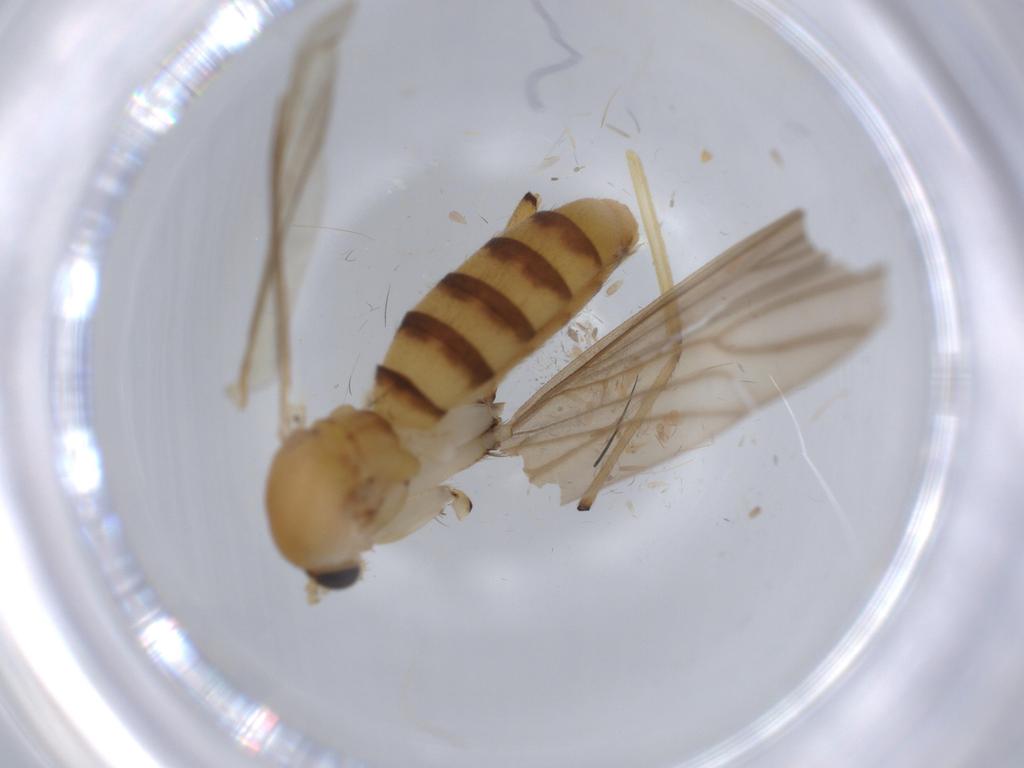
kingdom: Animalia
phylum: Arthropoda
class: Insecta
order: Diptera
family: Mycetophilidae
